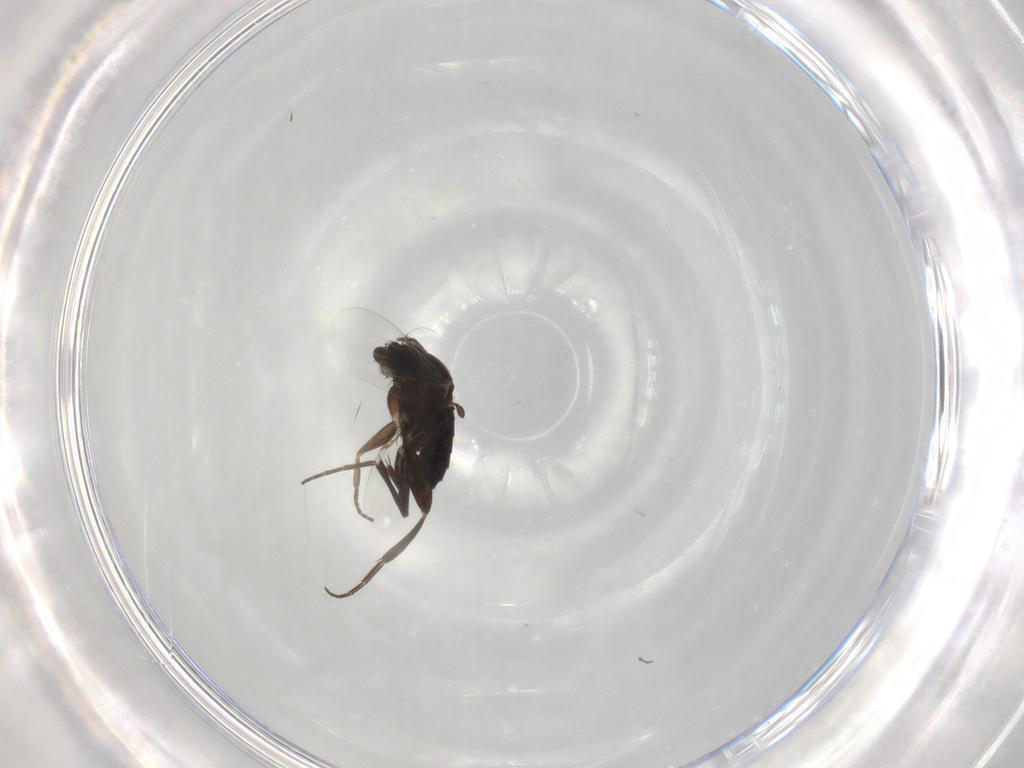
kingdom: Animalia
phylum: Arthropoda
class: Insecta
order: Diptera
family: Phoridae
